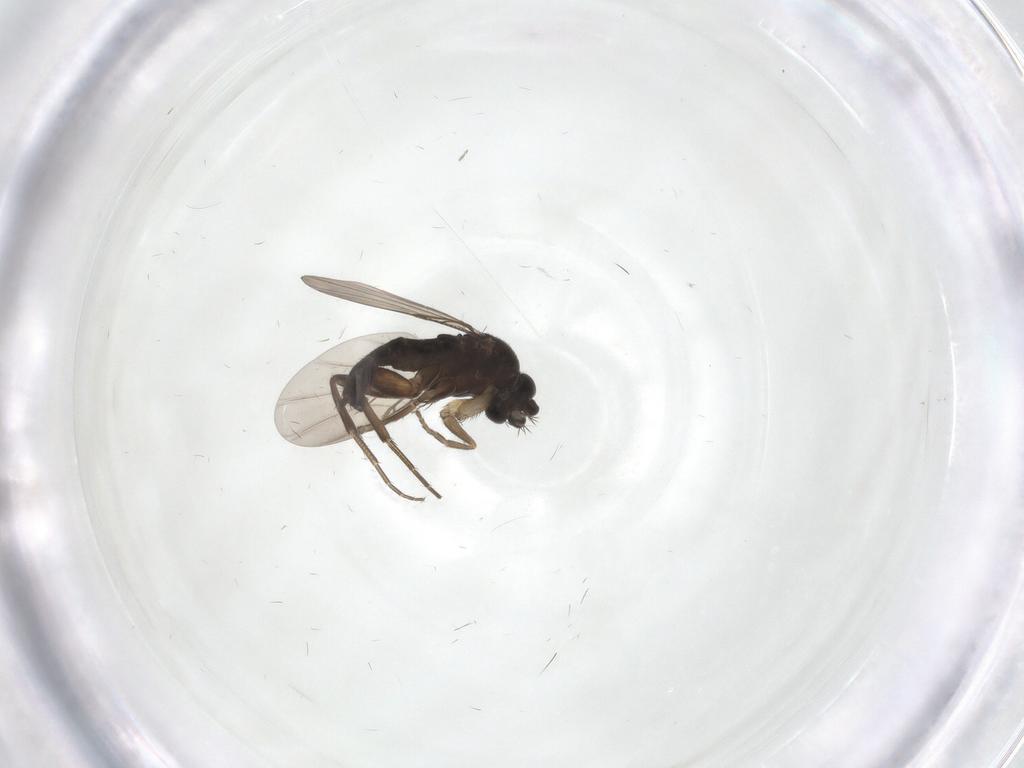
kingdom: Animalia
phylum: Arthropoda
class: Insecta
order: Diptera
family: Phoridae
